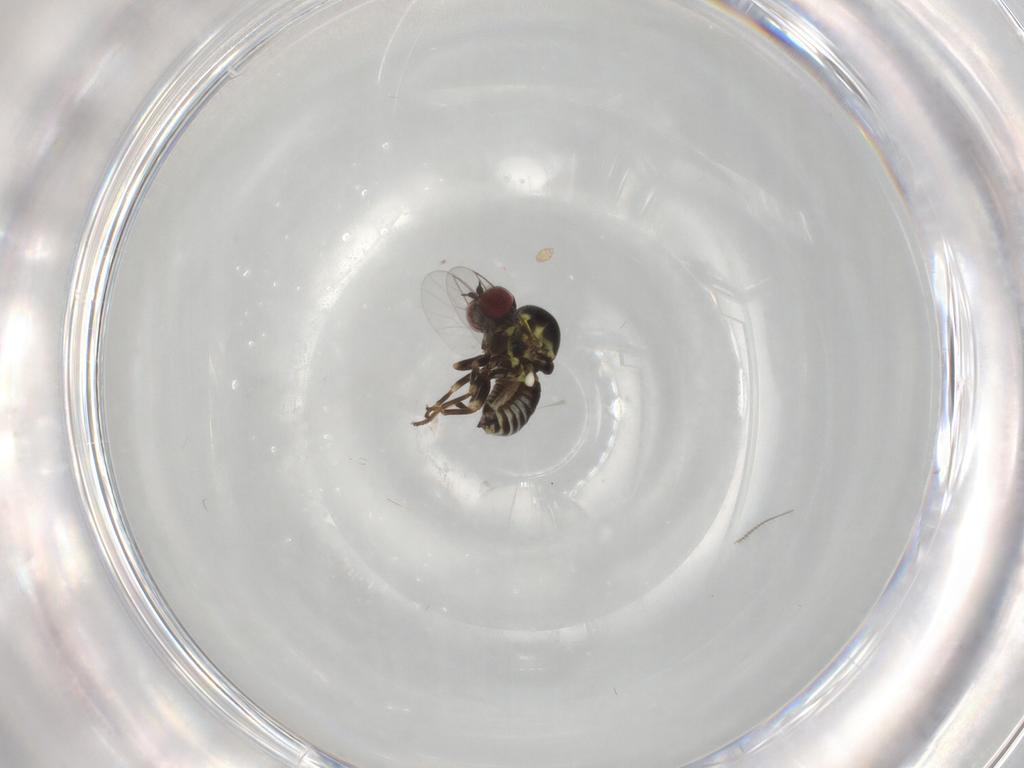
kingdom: Animalia
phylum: Arthropoda
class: Insecta
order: Diptera
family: Mythicomyiidae
